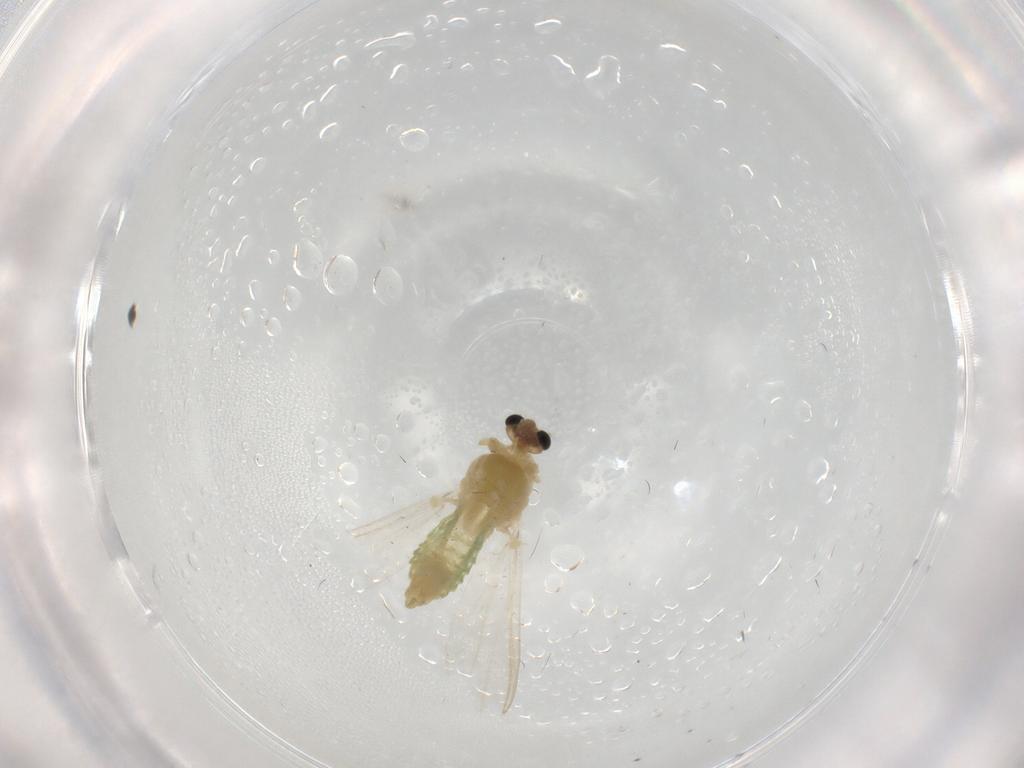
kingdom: Animalia
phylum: Arthropoda
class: Insecta
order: Diptera
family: Chironomidae
